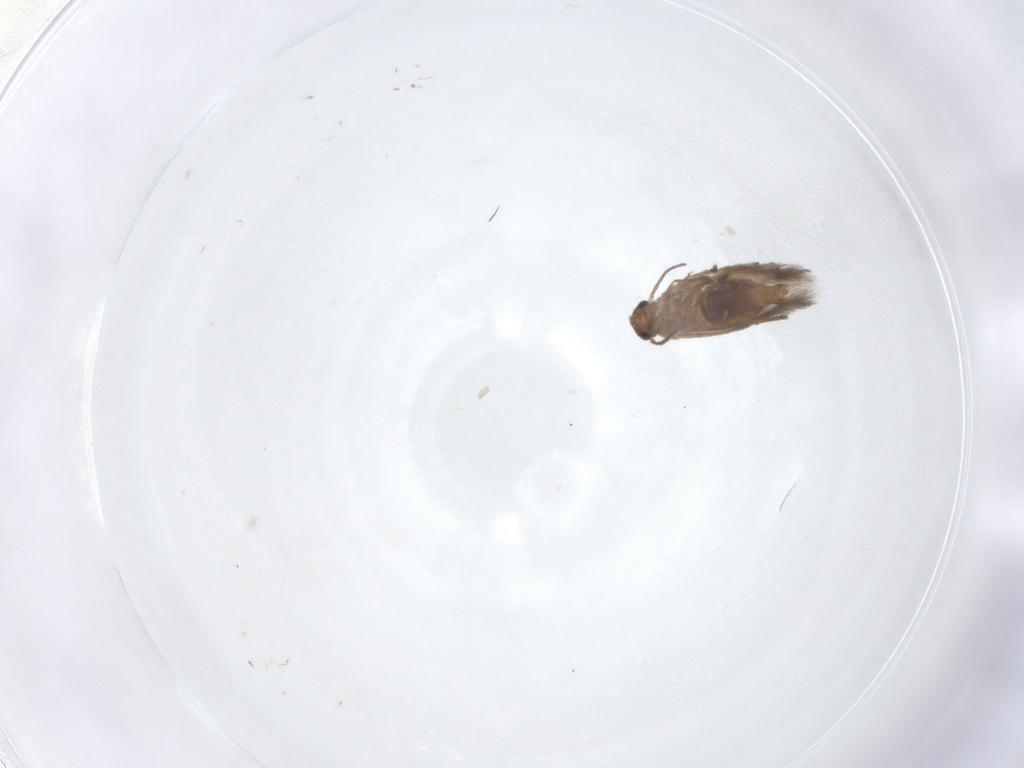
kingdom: Animalia
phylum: Arthropoda
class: Insecta
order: Lepidoptera
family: Heliozelidae
